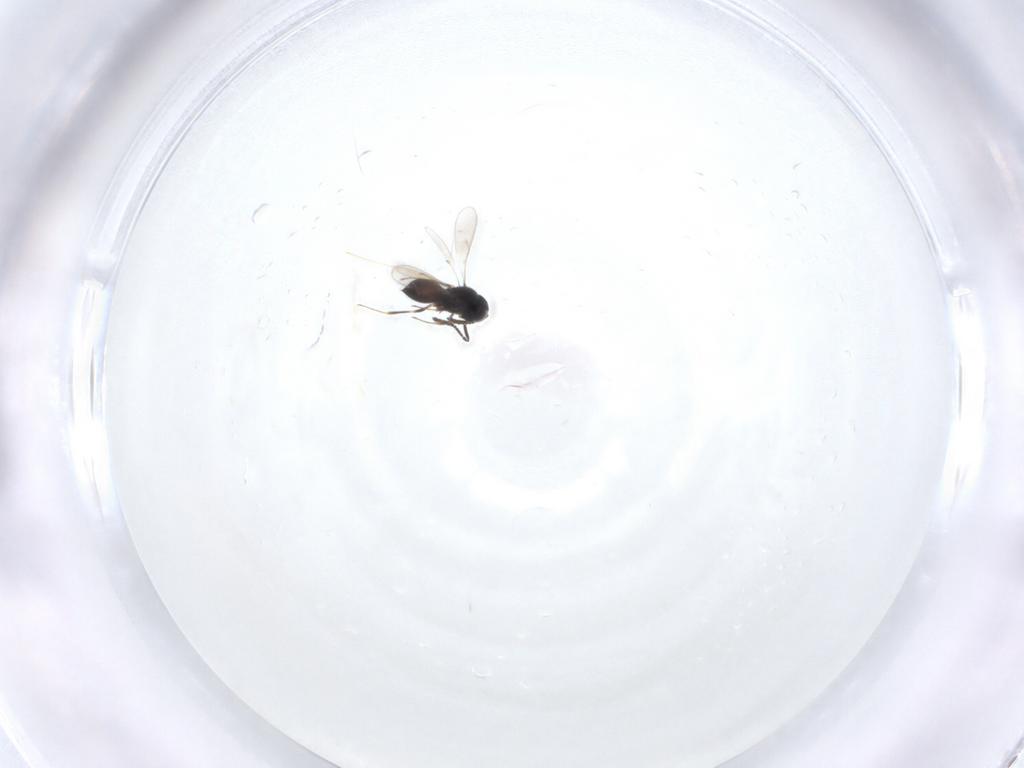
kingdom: Animalia
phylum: Arthropoda
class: Insecta
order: Hymenoptera
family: Scelionidae
